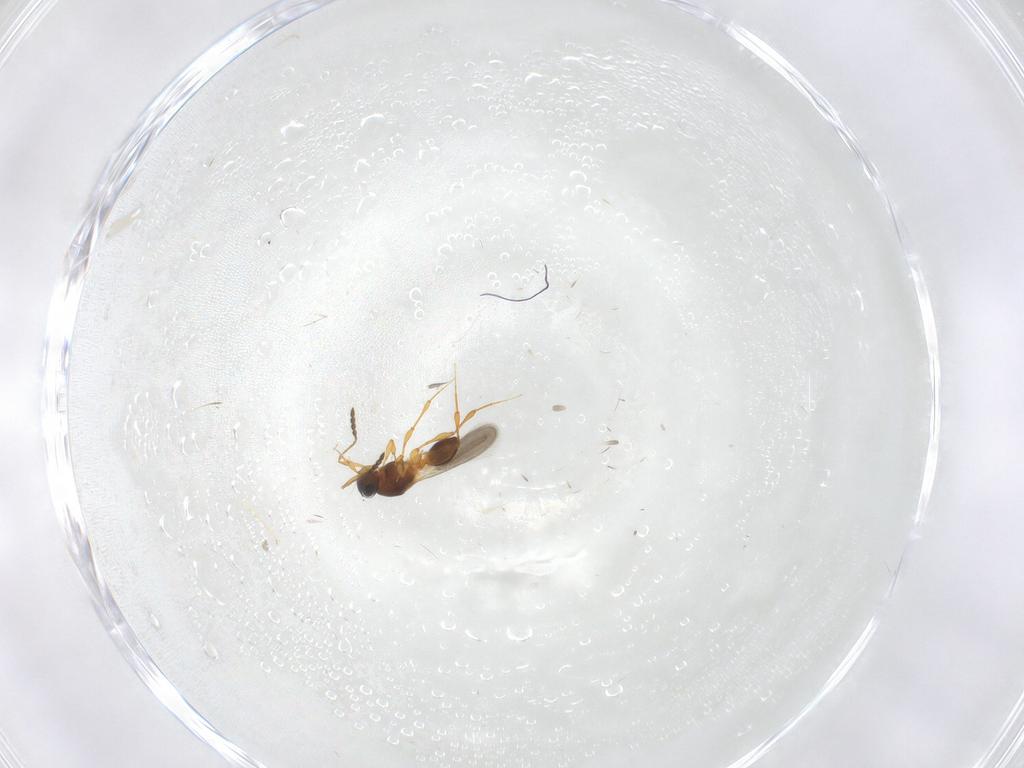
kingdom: Animalia
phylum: Arthropoda
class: Insecta
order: Hymenoptera
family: Platygastridae
